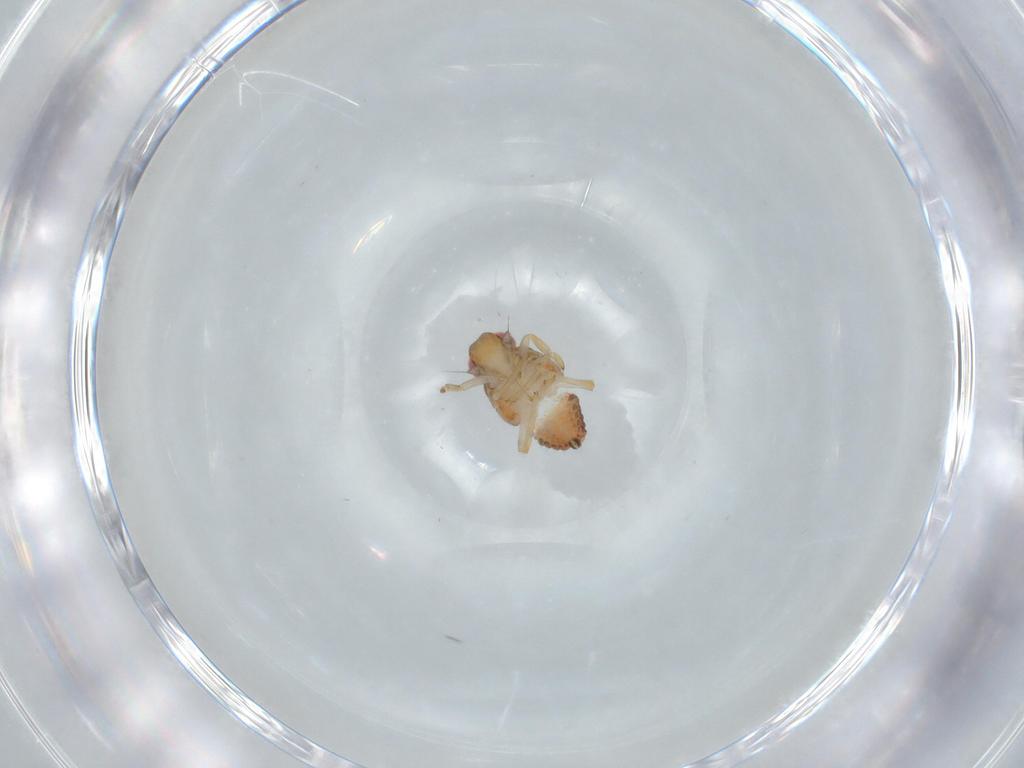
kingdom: Animalia
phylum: Arthropoda
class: Insecta
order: Hemiptera
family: Issidae
